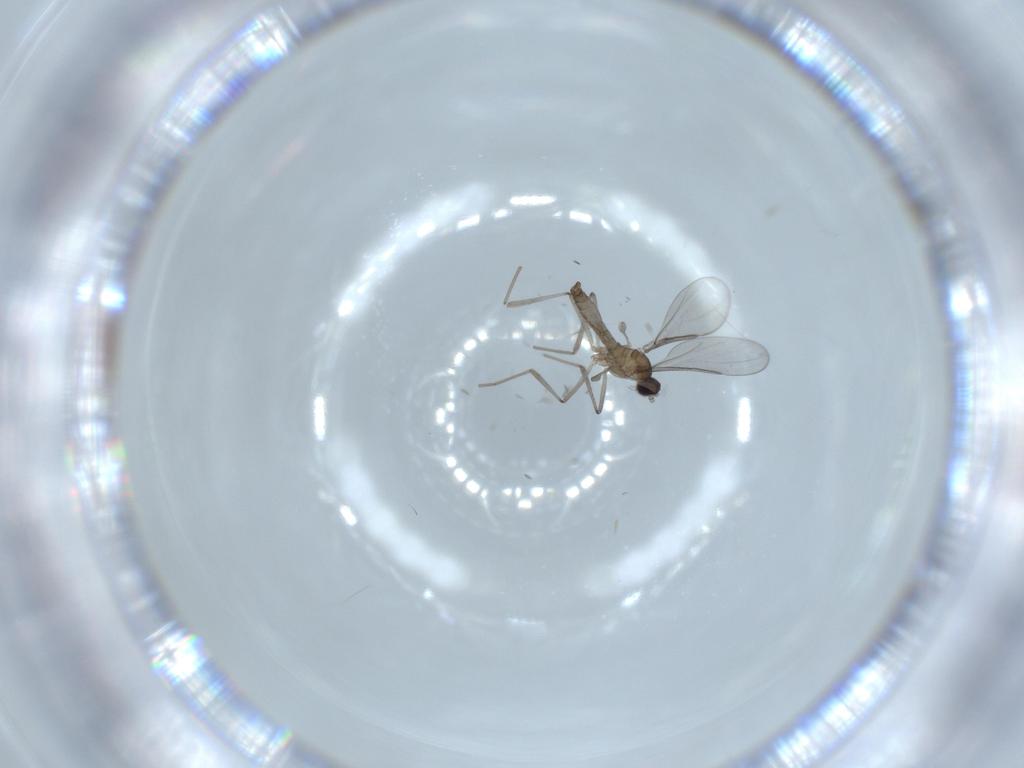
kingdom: Animalia
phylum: Arthropoda
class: Insecta
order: Diptera
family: Cecidomyiidae
